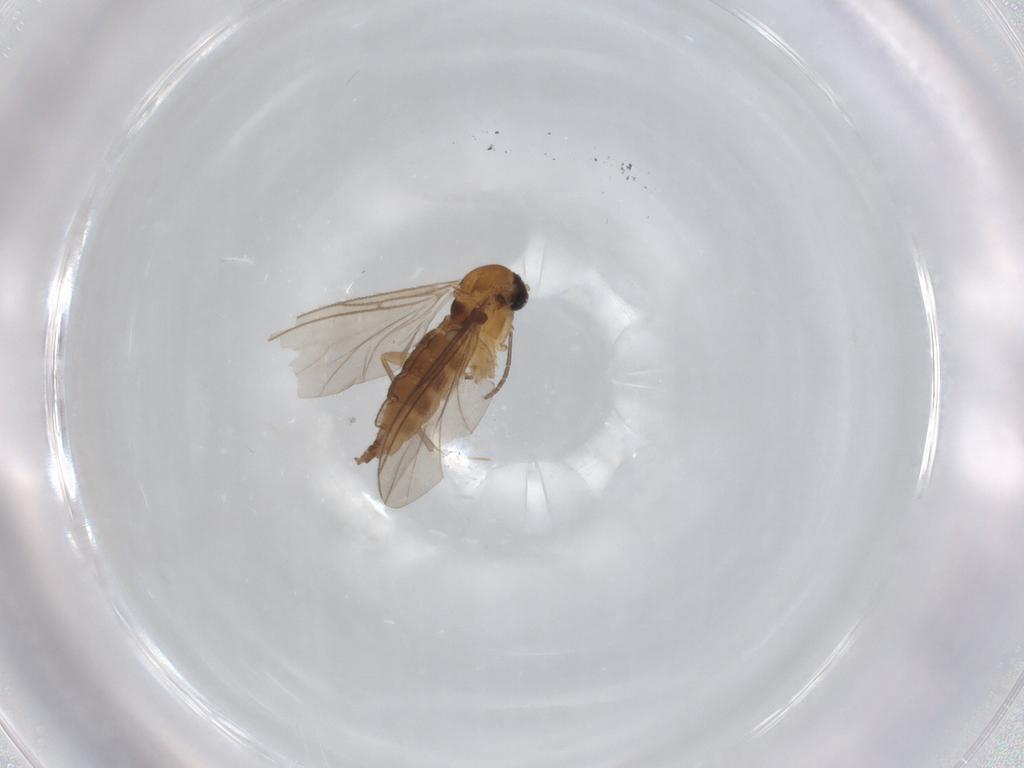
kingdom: Animalia
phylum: Arthropoda
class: Insecta
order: Diptera
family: Sciaridae
